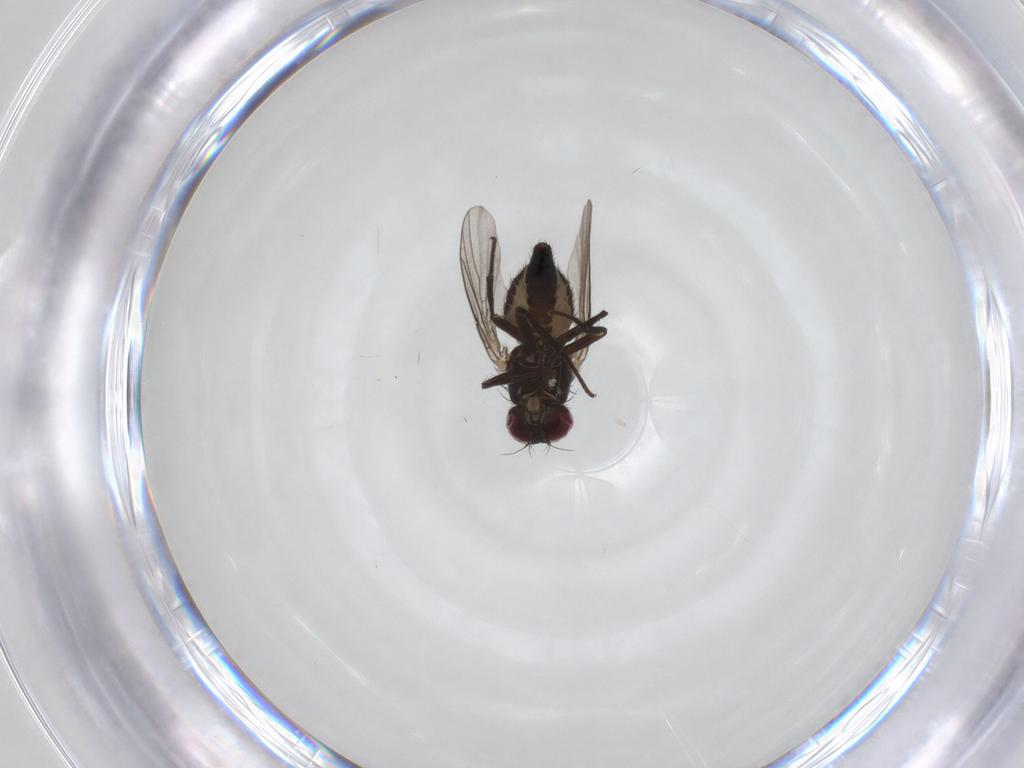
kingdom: Animalia
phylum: Arthropoda
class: Insecta
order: Diptera
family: Agromyzidae
